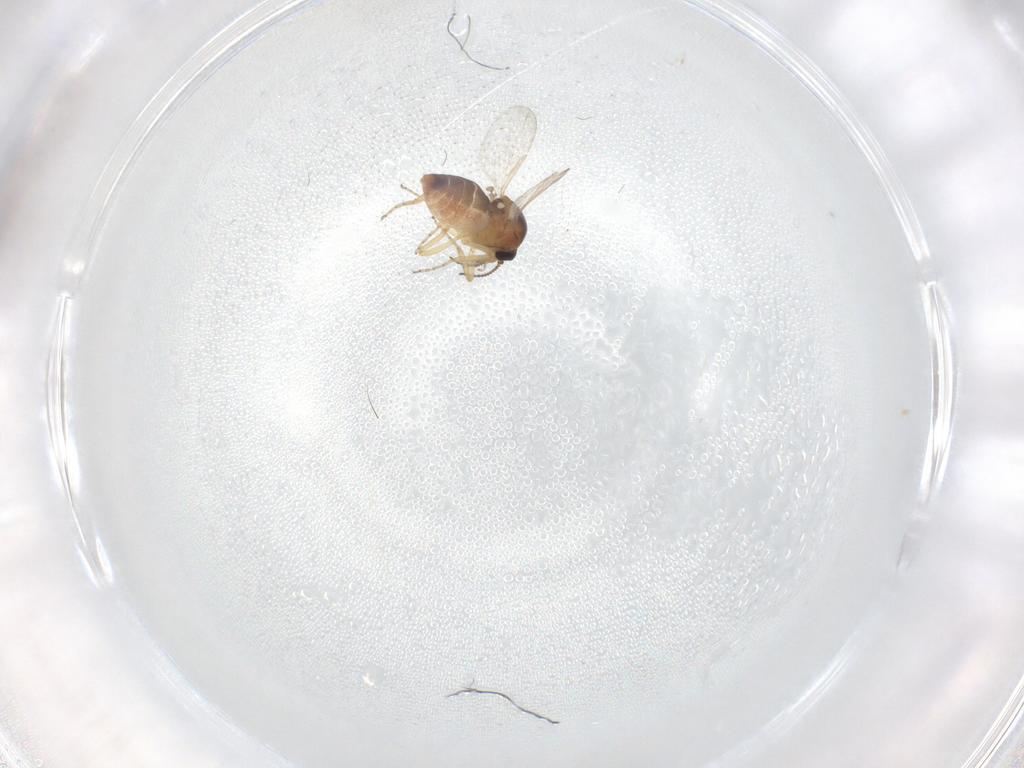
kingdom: Animalia
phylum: Arthropoda
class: Insecta
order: Diptera
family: Ceratopogonidae
